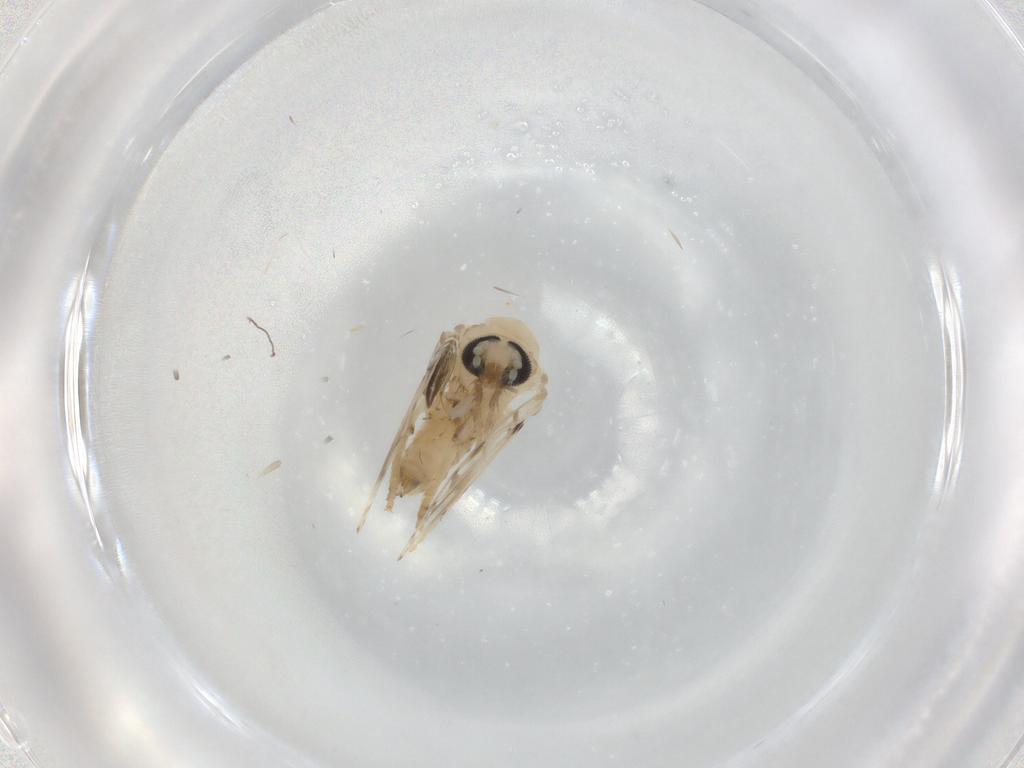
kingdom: Animalia
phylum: Arthropoda
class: Insecta
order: Diptera
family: Psychodidae
